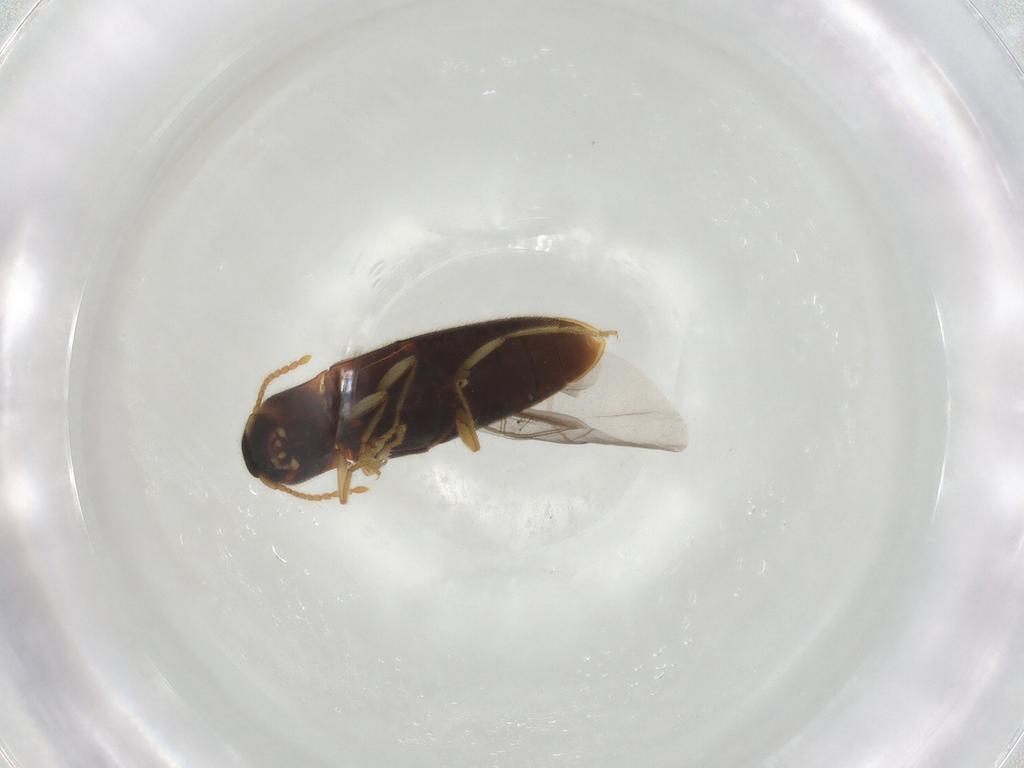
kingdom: Animalia
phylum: Arthropoda
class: Insecta
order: Coleoptera
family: Elateridae
